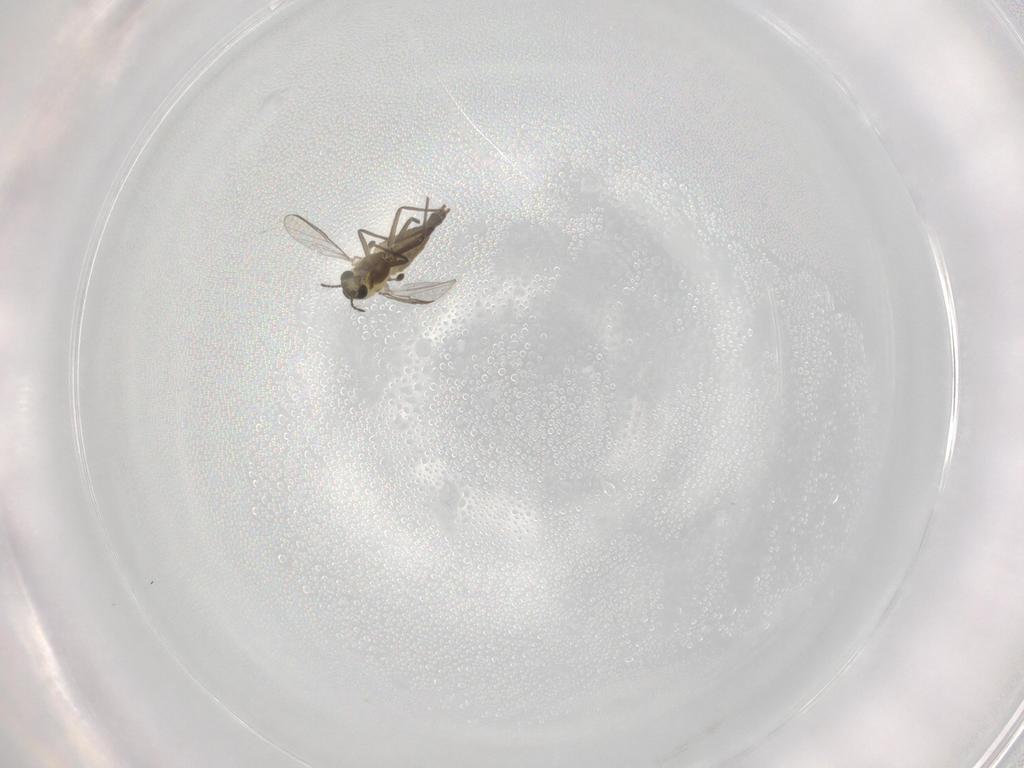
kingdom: Animalia
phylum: Arthropoda
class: Insecta
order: Diptera
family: Chironomidae
